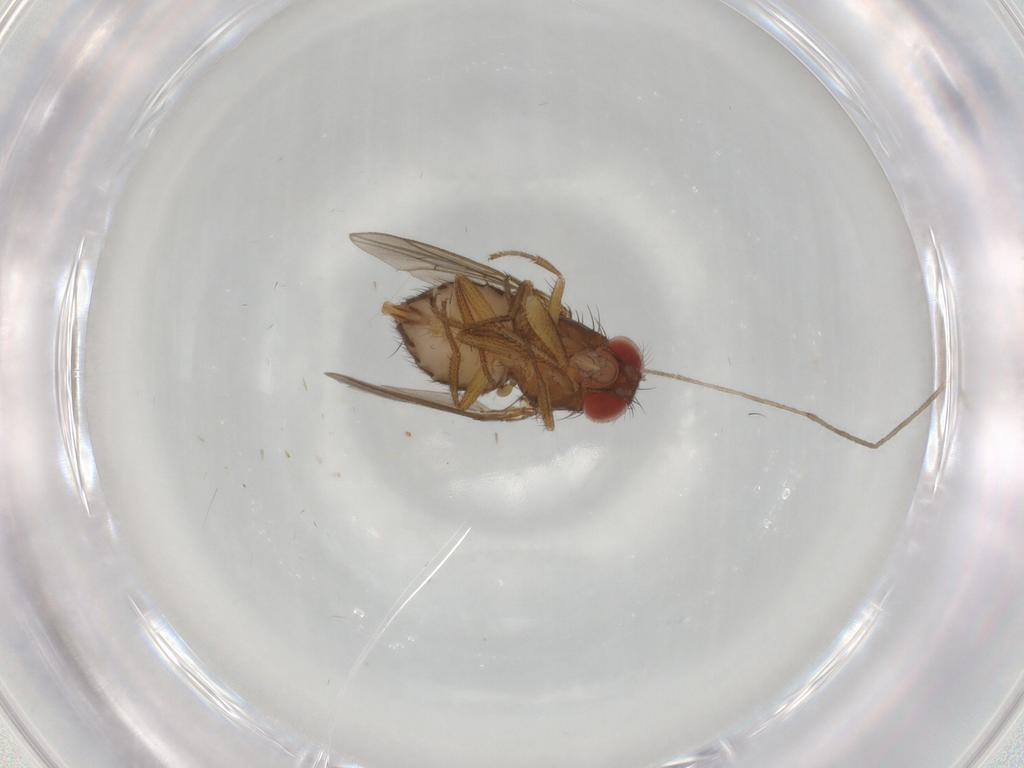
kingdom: Animalia
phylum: Arthropoda
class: Insecta
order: Diptera
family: Drosophilidae
